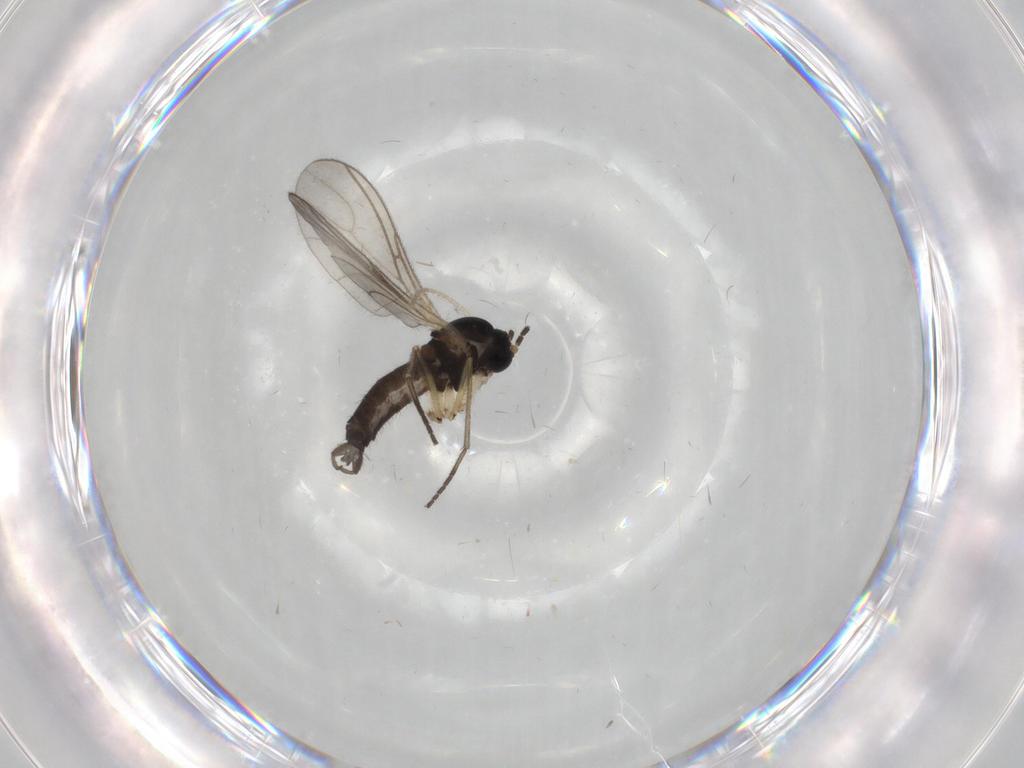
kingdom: Animalia
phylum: Arthropoda
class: Insecta
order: Diptera
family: Sciaridae
